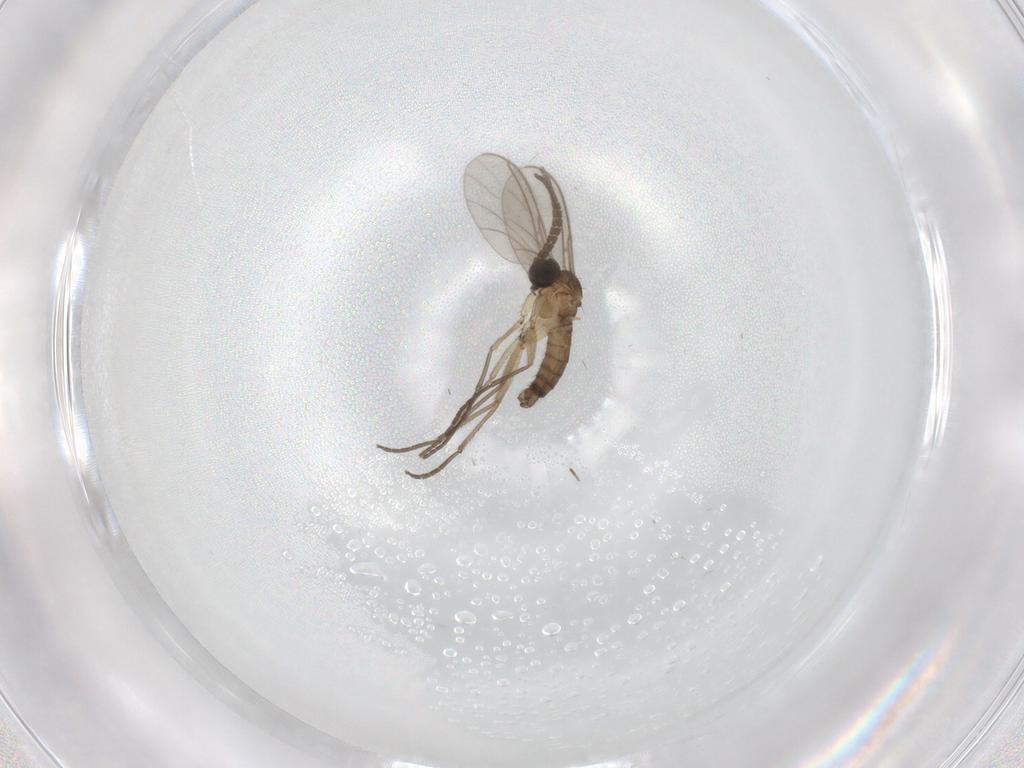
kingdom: Animalia
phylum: Arthropoda
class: Insecta
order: Diptera
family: Sciaridae
